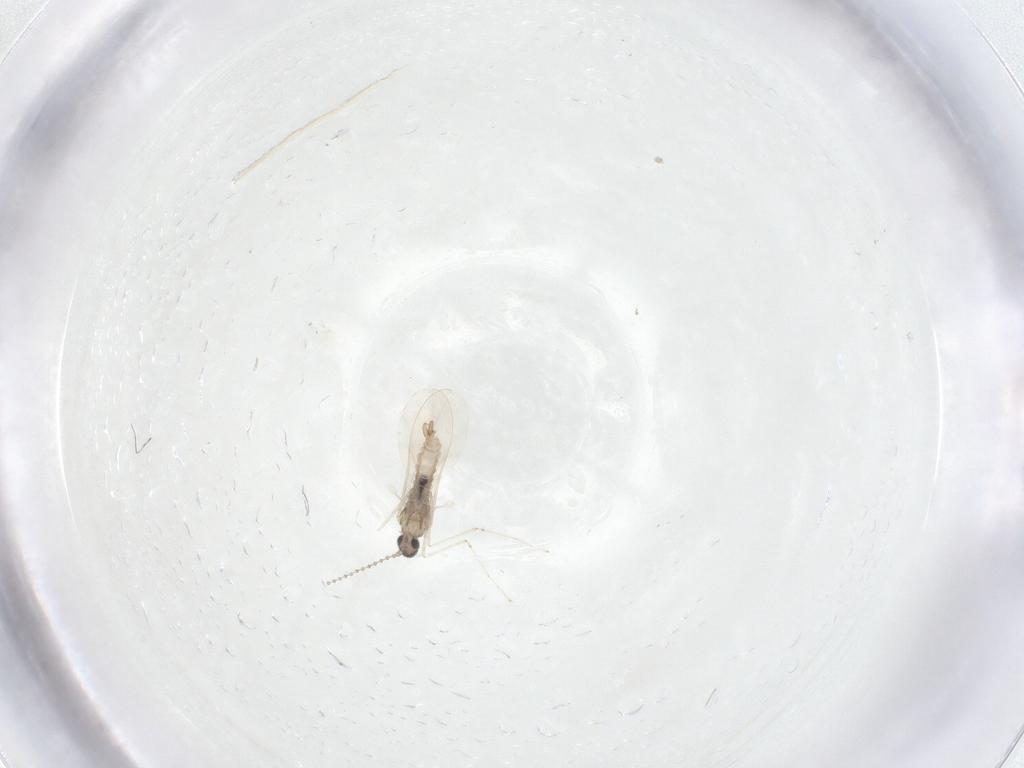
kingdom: Animalia
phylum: Arthropoda
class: Insecta
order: Diptera
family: Cecidomyiidae
